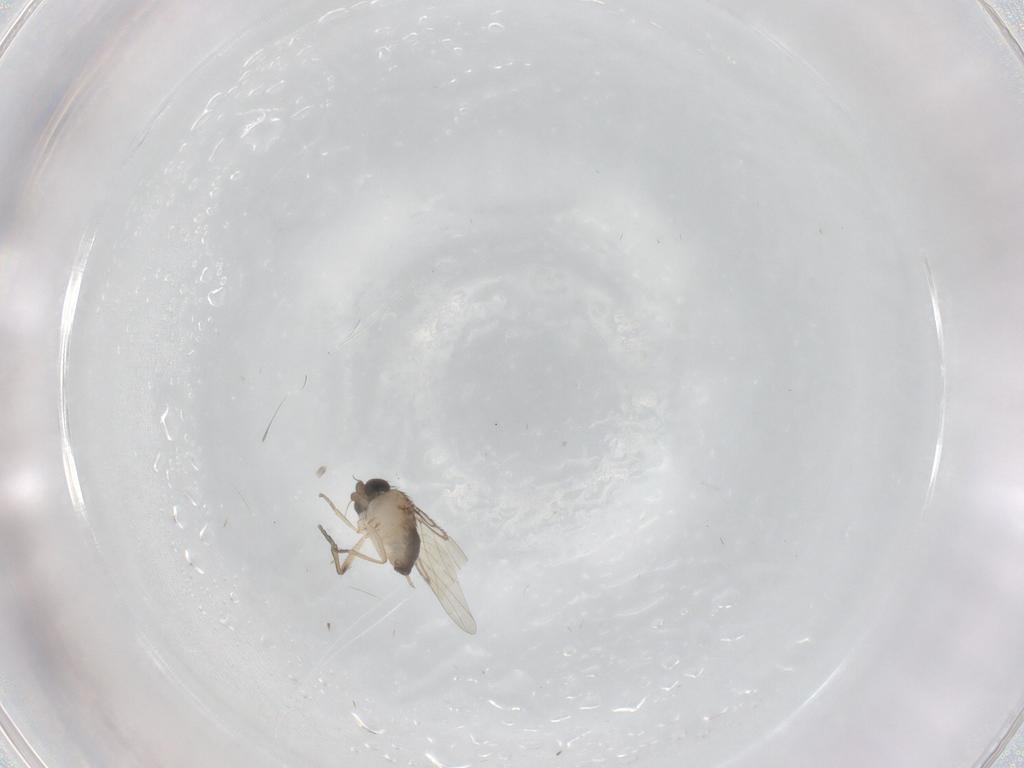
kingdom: Animalia
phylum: Arthropoda
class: Insecta
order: Diptera
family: Phoridae
